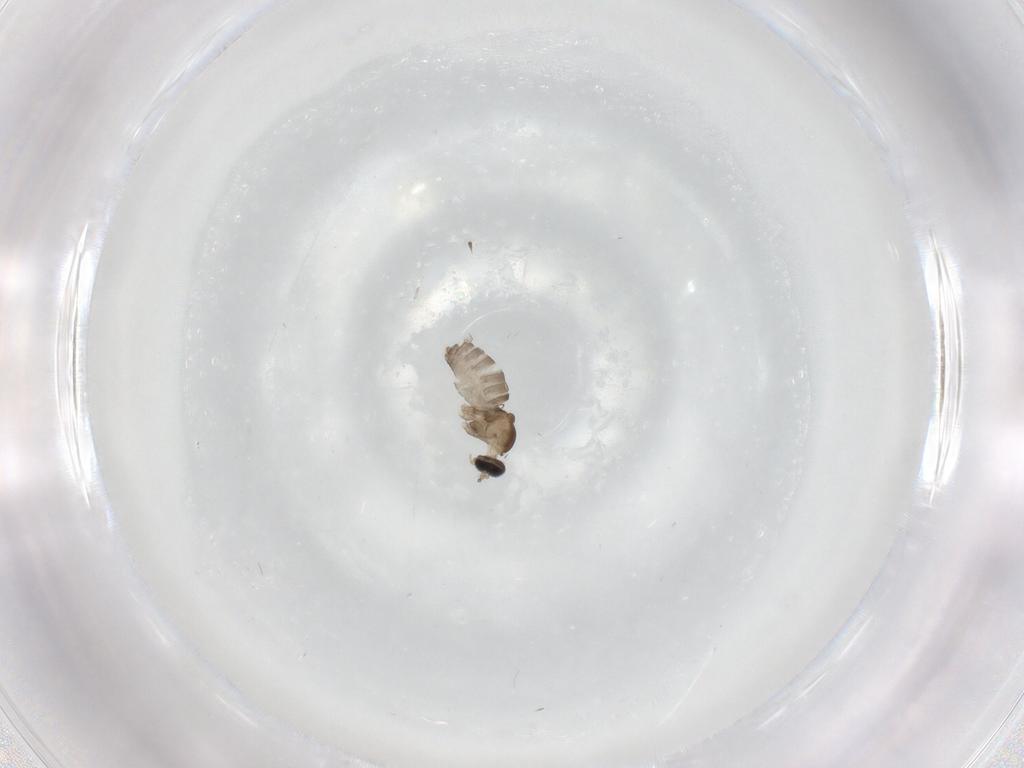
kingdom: Animalia
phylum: Arthropoda
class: Insecta
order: Diptera
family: Cecidomyiidae
